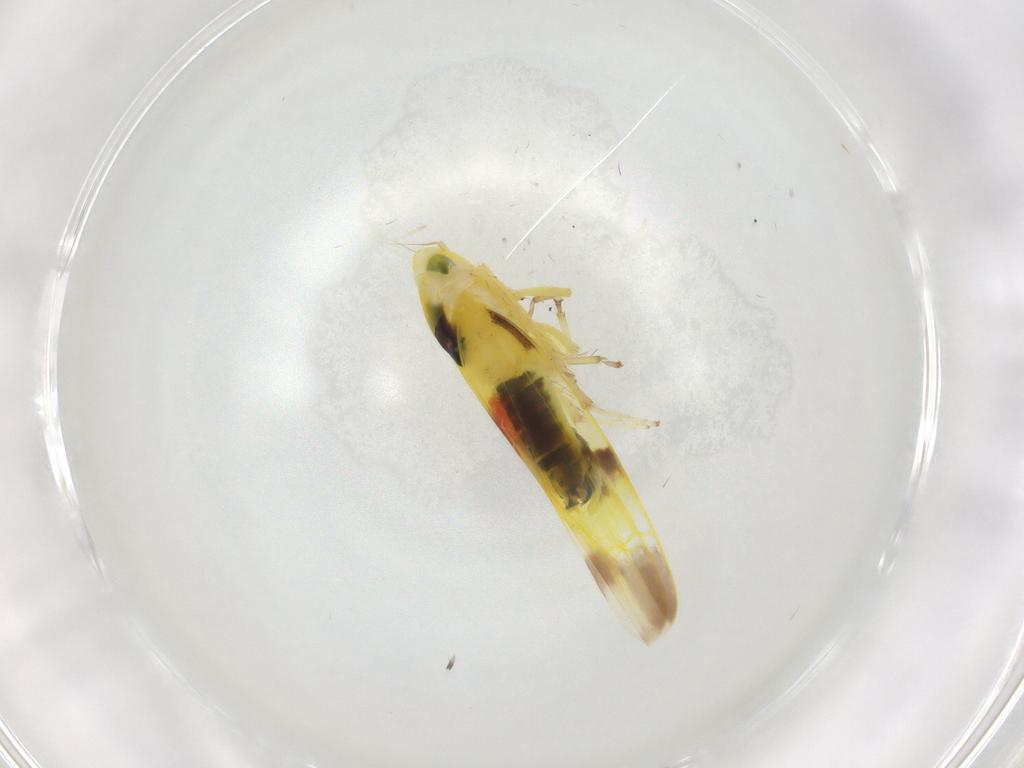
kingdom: Animalia
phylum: Arthropoda
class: Insecta
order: Hemiptera
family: Cicadellidae
